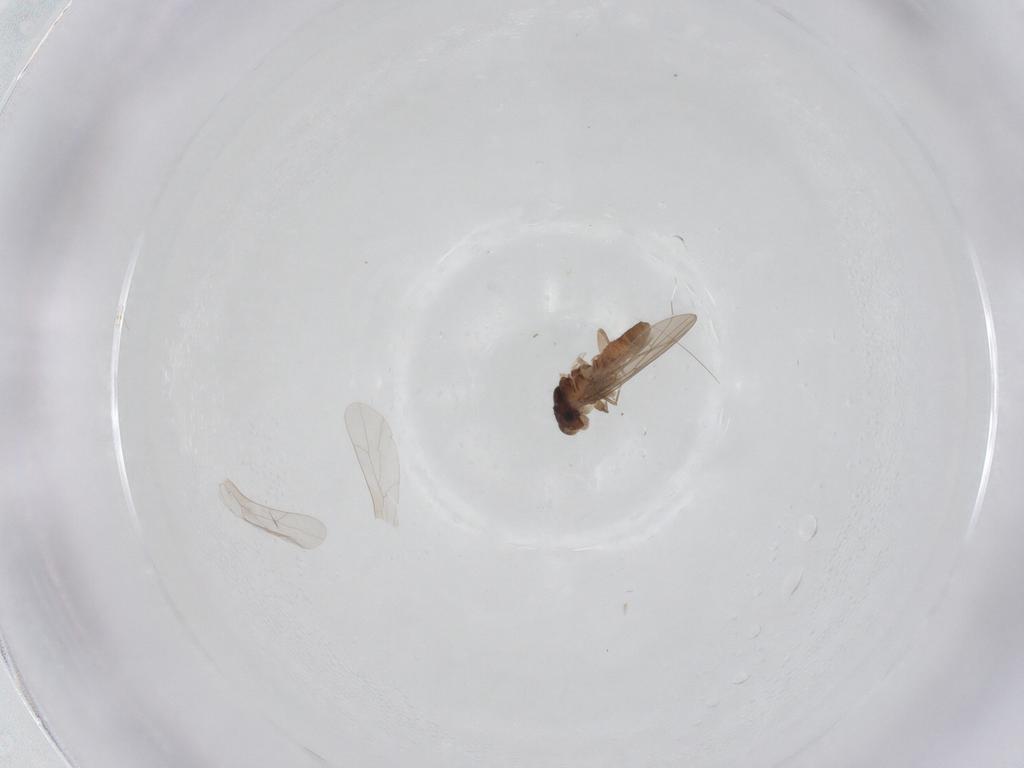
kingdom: Animalia
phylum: Arthropoda
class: Insecta
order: Psocodea
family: Lepidopsocidae
